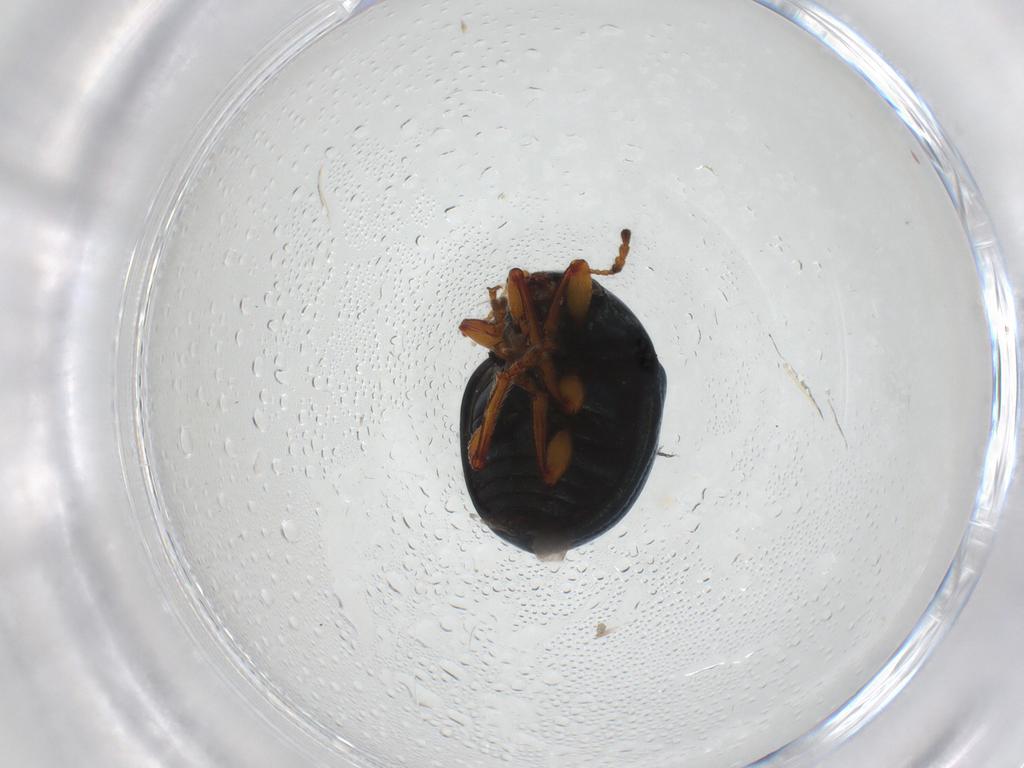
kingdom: Animalia
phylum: Arthropoda
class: Insecta
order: Coleoptera
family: Chrysomelidae
